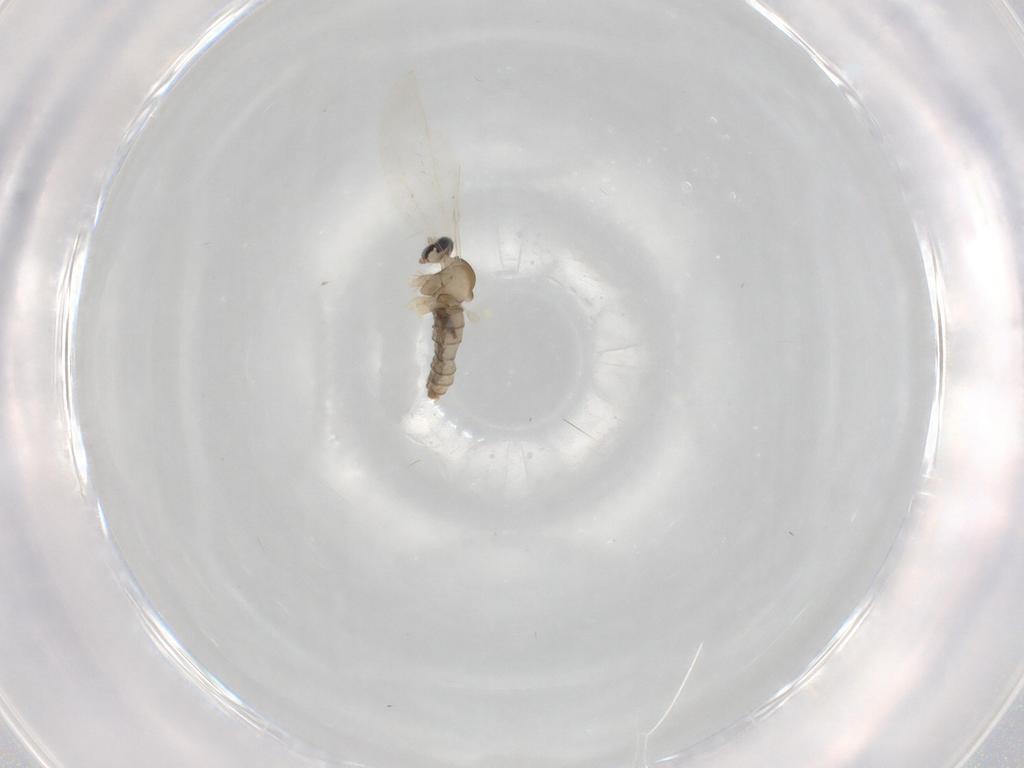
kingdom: Animalia
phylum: Arthropoda
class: Insecta
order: Diptera
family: Cecidomyiidae
